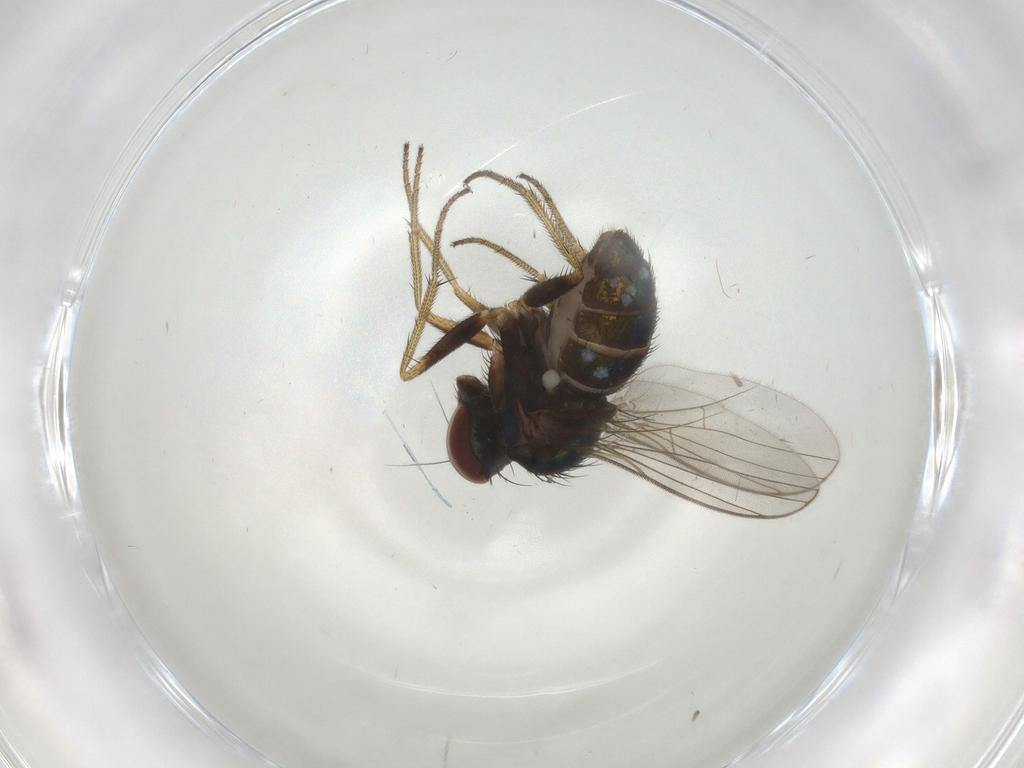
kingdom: Animalia
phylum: Arthropoda
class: Insecta
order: Diptera
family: Dolichopodidae
